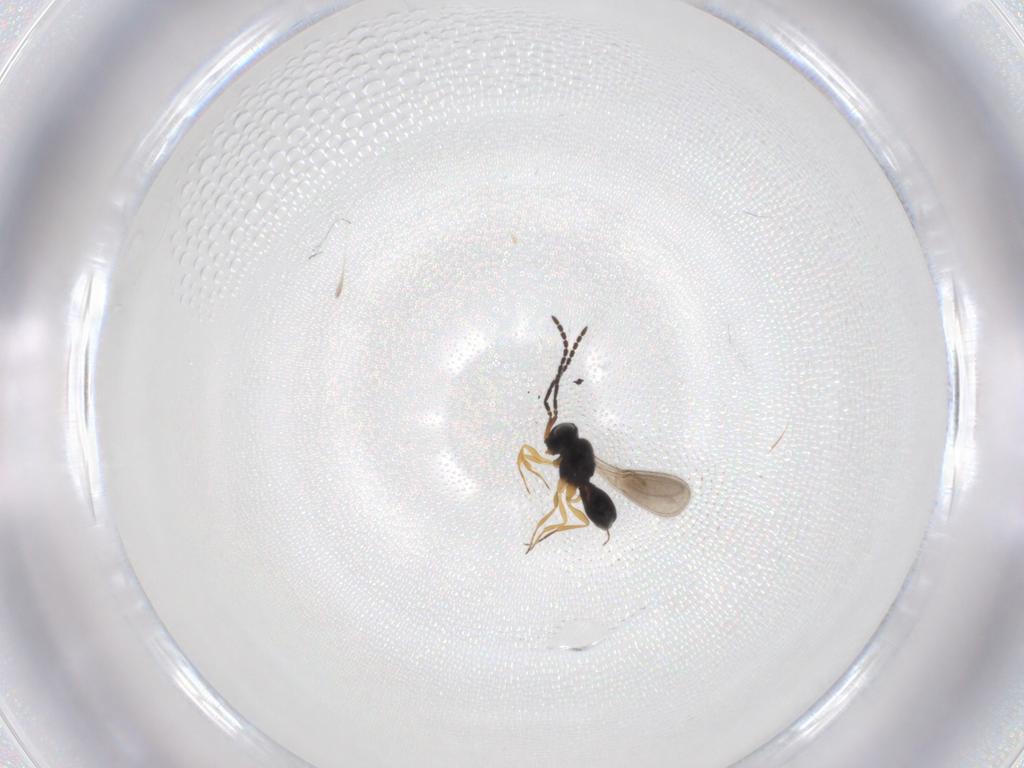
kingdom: Animalia
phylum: Arthropoda
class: Insecta
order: Hymenoptera
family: Scelionidae
